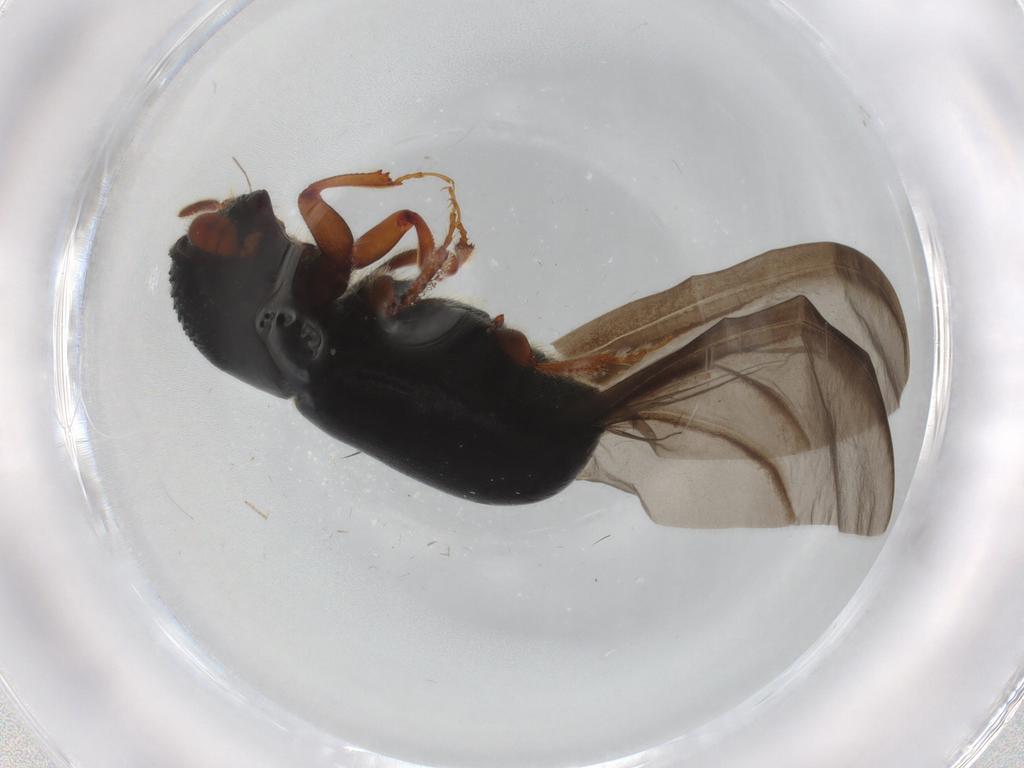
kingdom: Animalia
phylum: Arthropoda
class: Insecta
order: Coleoptera
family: Curculionidae
